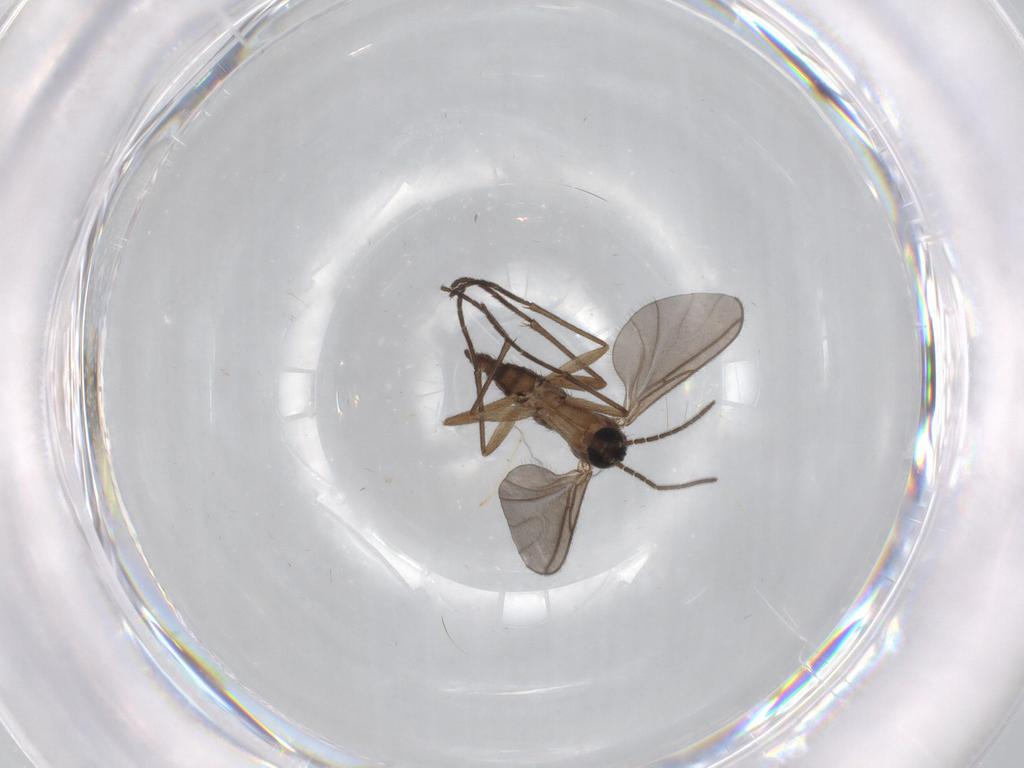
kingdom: Animalia
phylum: Arthropoda
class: Insecta
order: Diptera
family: Cecidomyiidae
